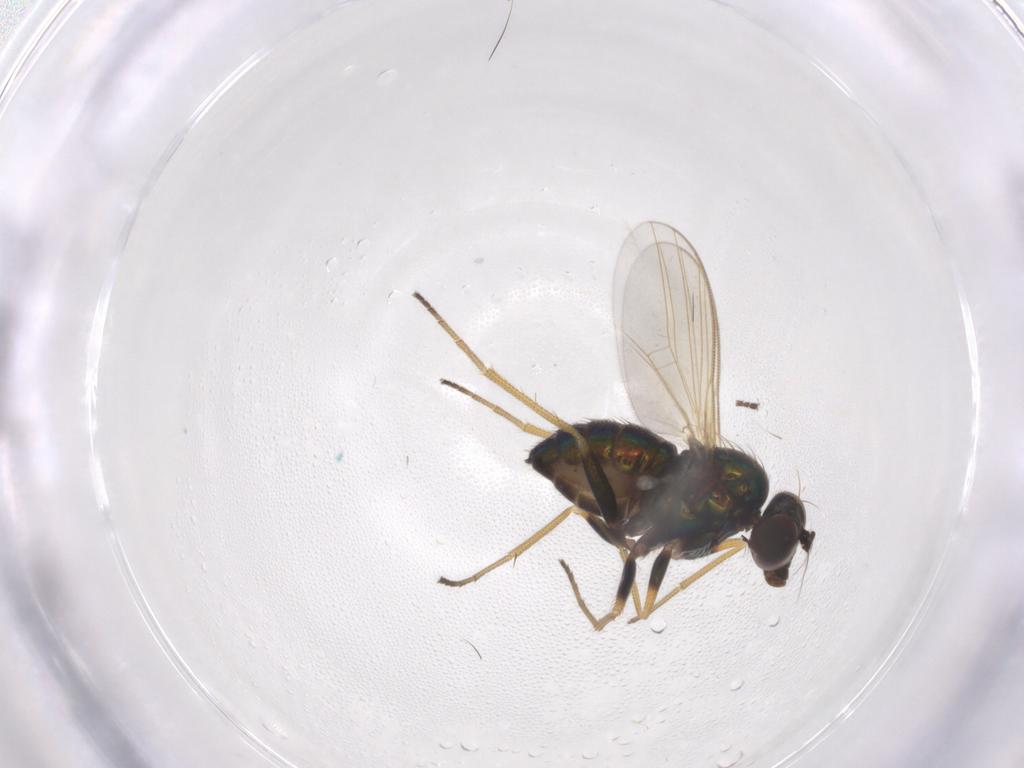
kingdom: Animalia
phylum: Arthropoda
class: Insecta
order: Diptera
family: Dolichopodidae
